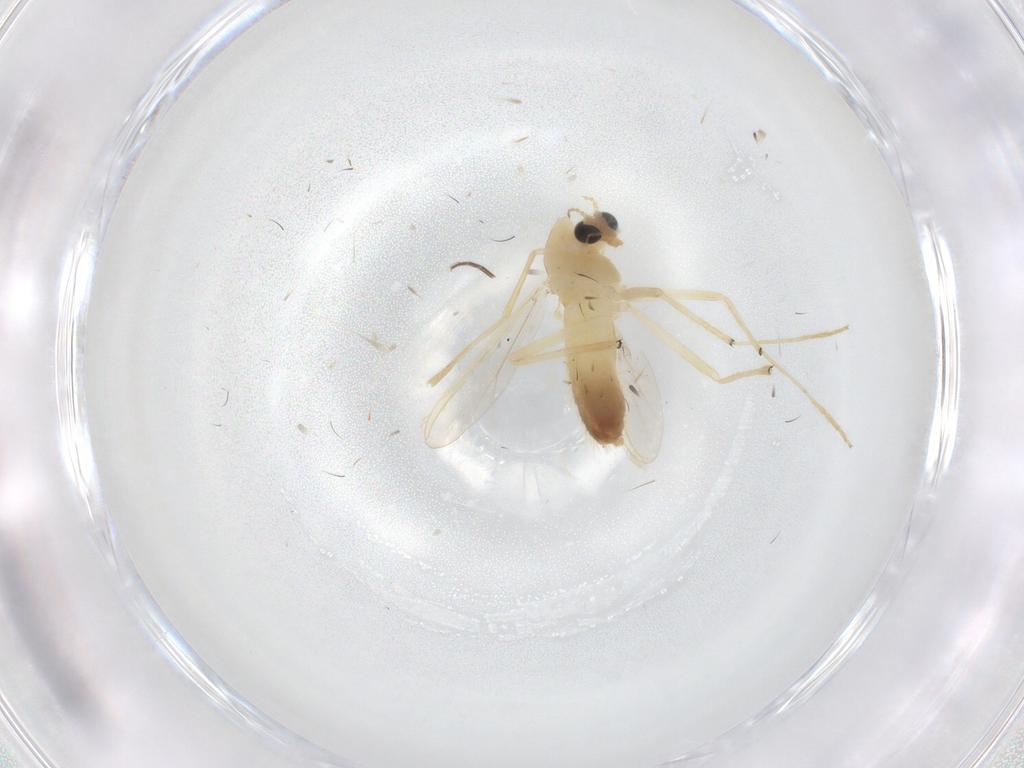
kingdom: Animalia
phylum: Arthropoda
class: Insecta
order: Diptera
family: Chironomidae
